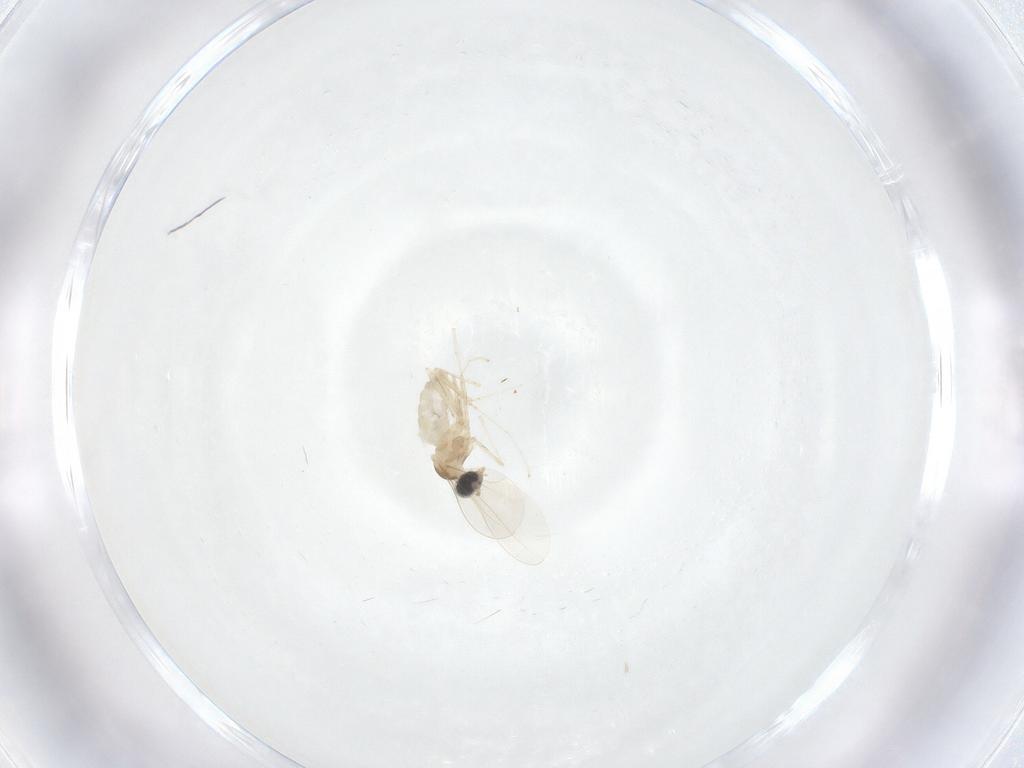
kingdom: Animalia
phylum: Arthropoda
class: Insecta
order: Diptera
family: Cecidomyiidae
